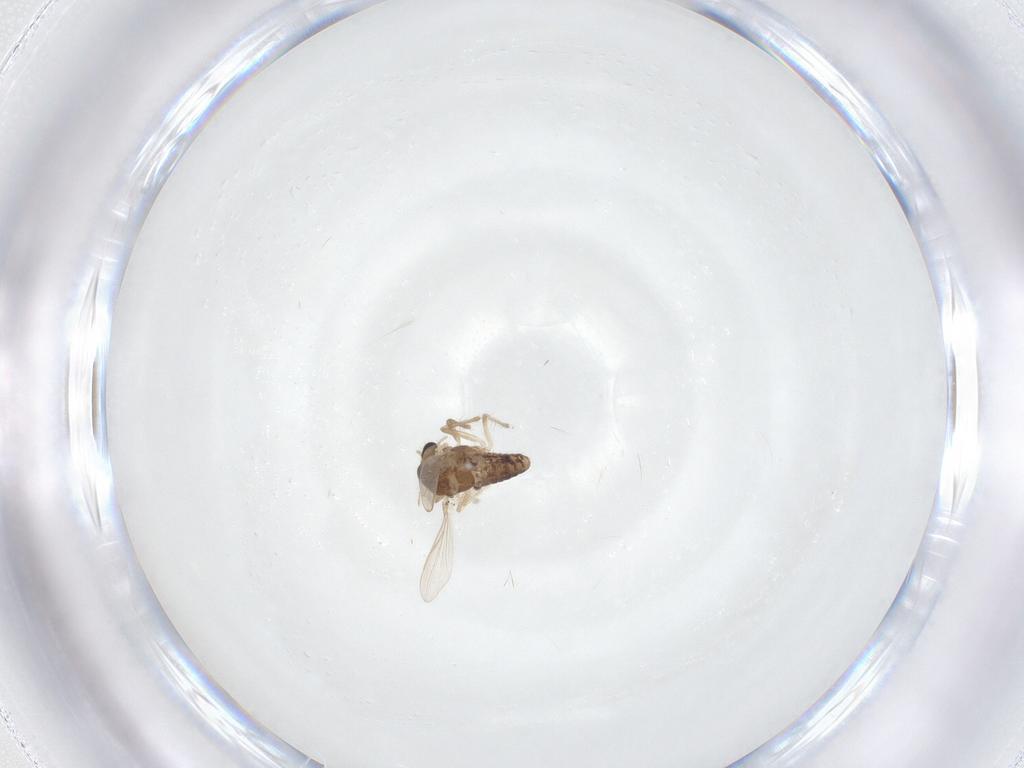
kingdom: Animalia
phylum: Arthropoda
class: Insecta
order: Diptera
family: Chironomidae
